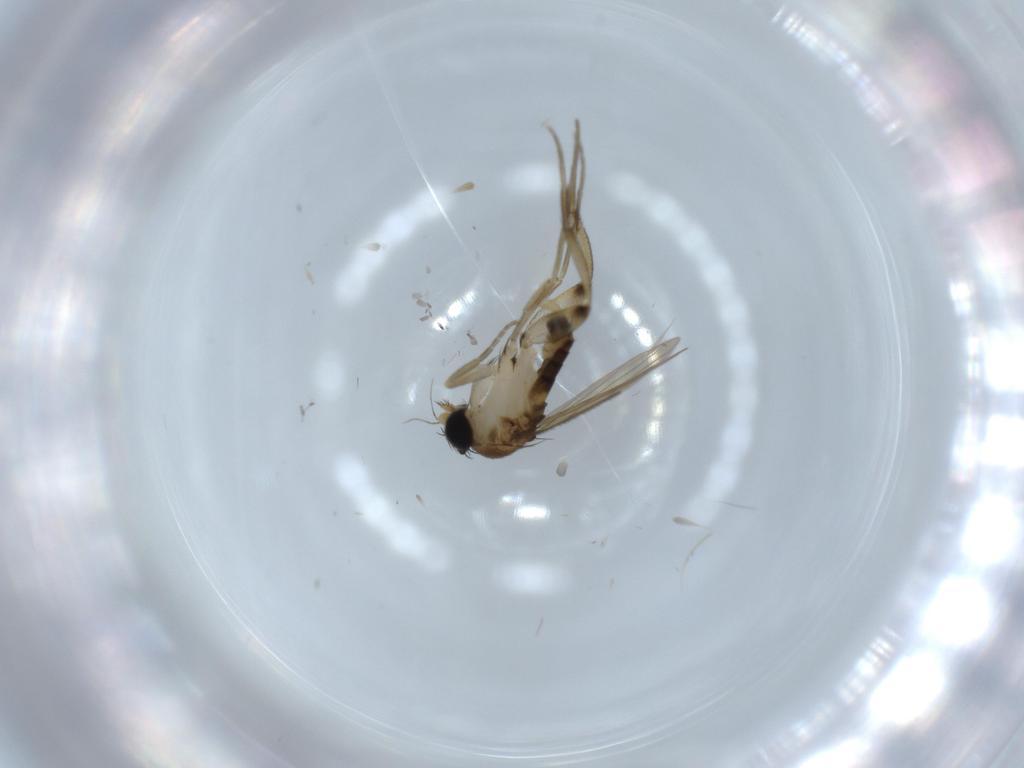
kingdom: Animalia
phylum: Arthropoda
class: Insecta
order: Diptera
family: Phoridae
